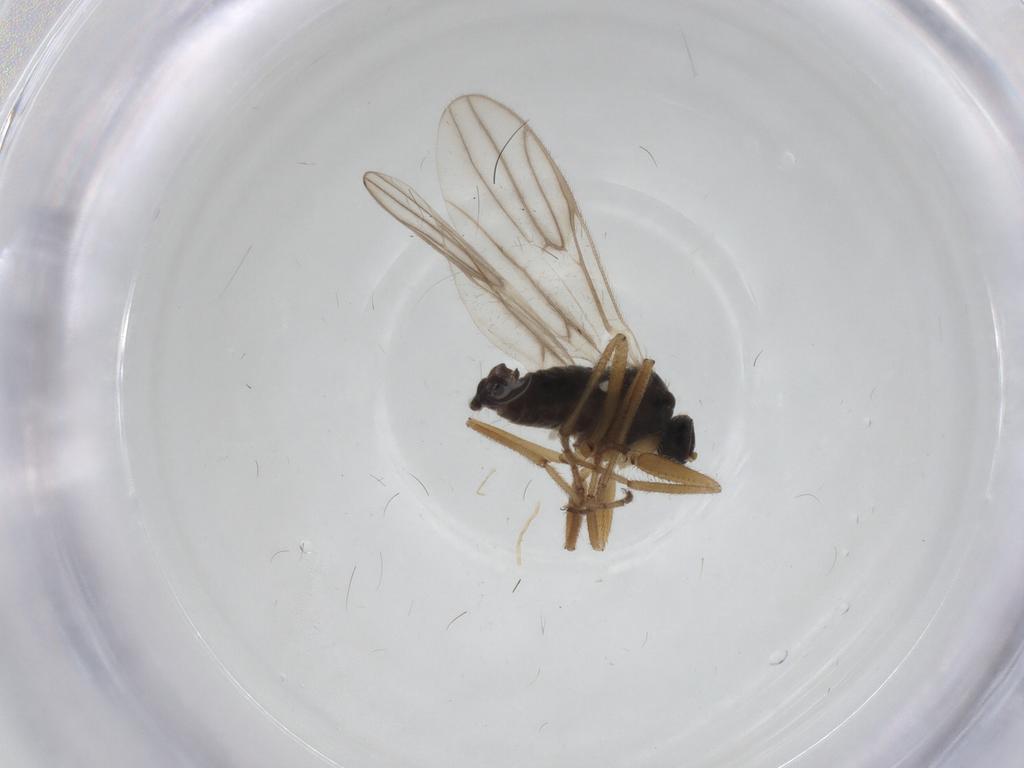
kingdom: Animalia
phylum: Arthropoda
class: Insecta
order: Diptera
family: Hybotidae
